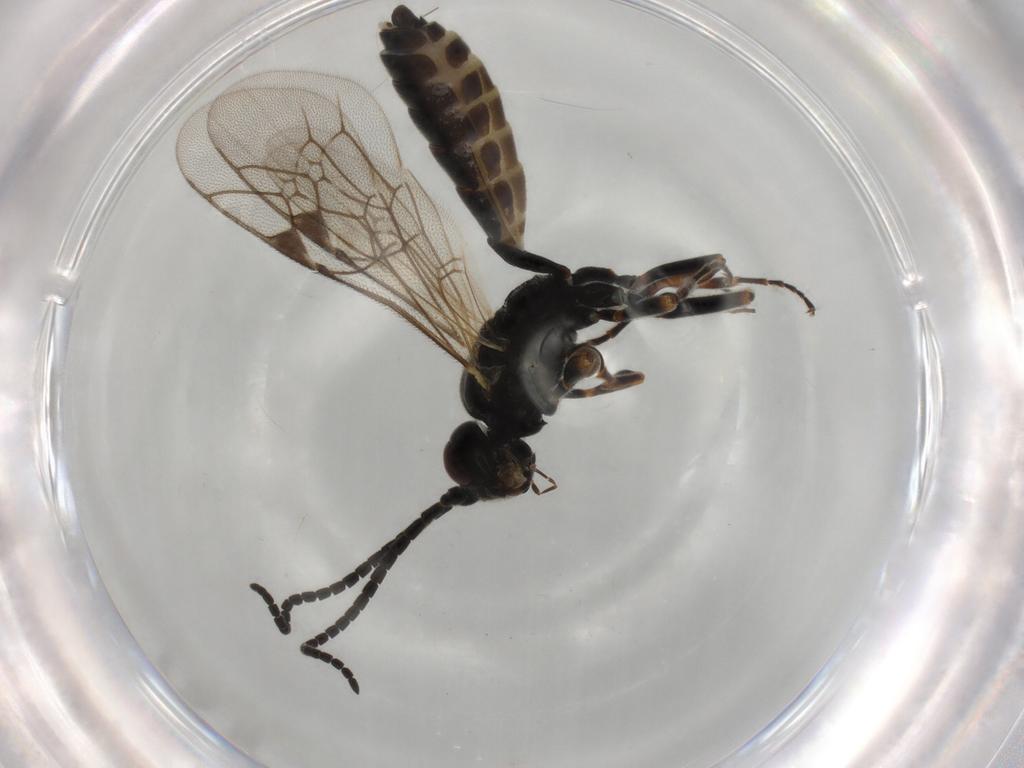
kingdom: Animalia
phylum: Arthropoda
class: Insecta
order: Hymenoptera
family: Ichneumonidae
